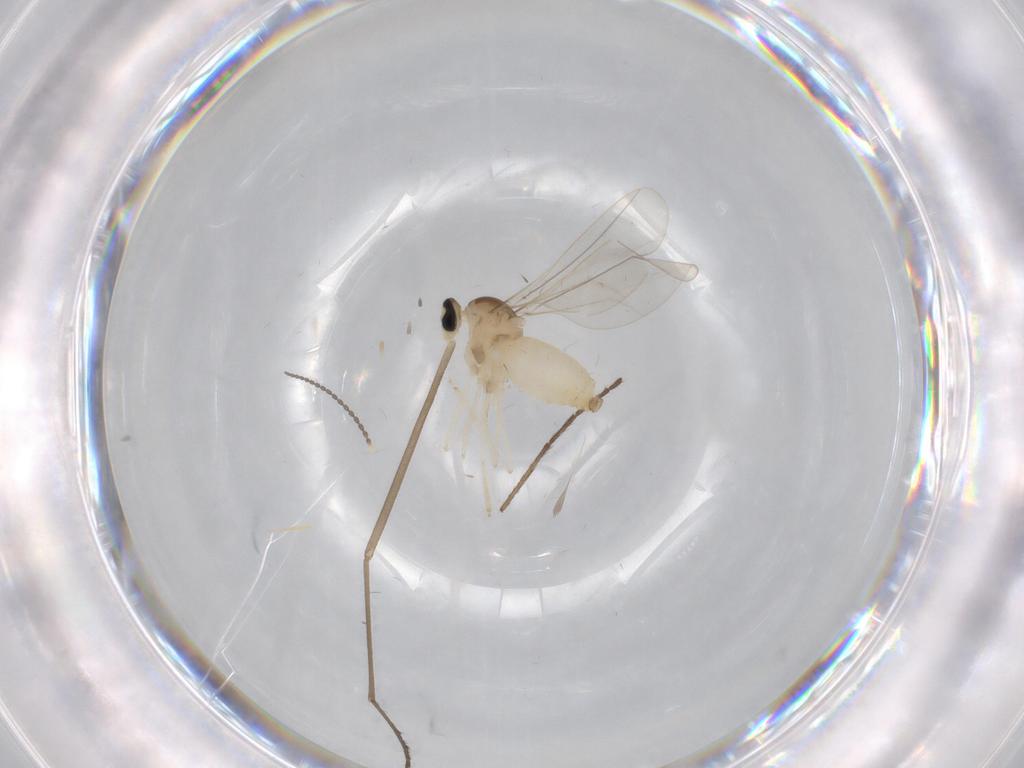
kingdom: Animalia
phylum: Arthropoda
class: Insecta
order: Diptera
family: Cecidomyiidae
